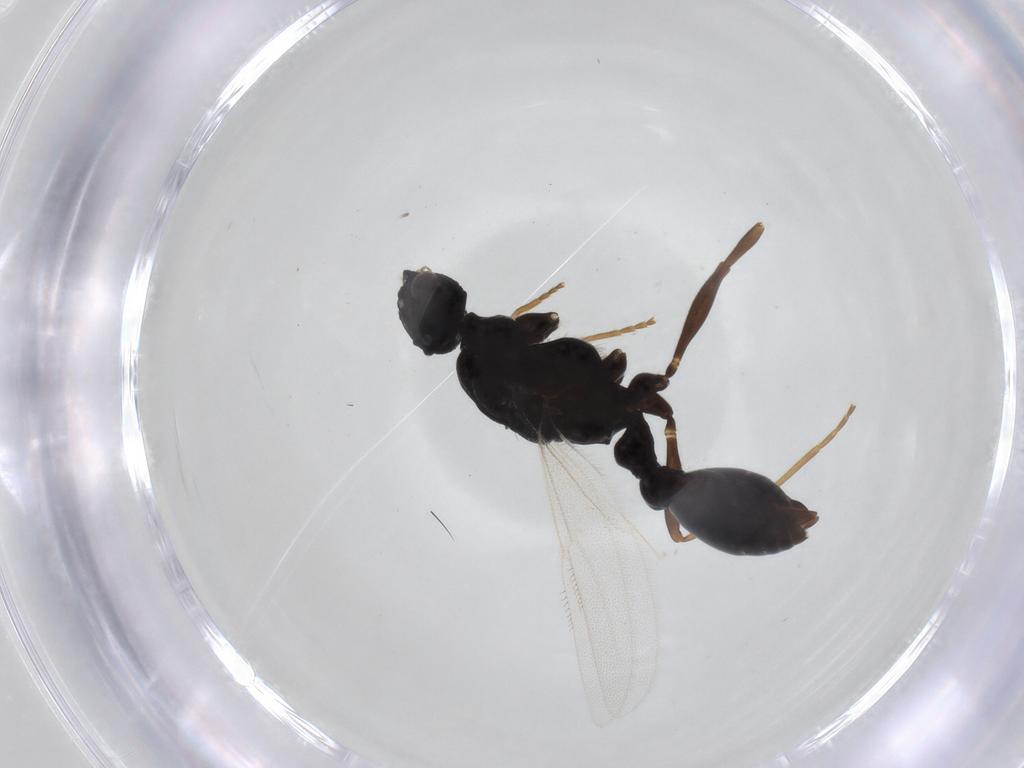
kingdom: Animalia
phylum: Arthropoda
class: Insecta
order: Hymenoptera
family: Formicidae
